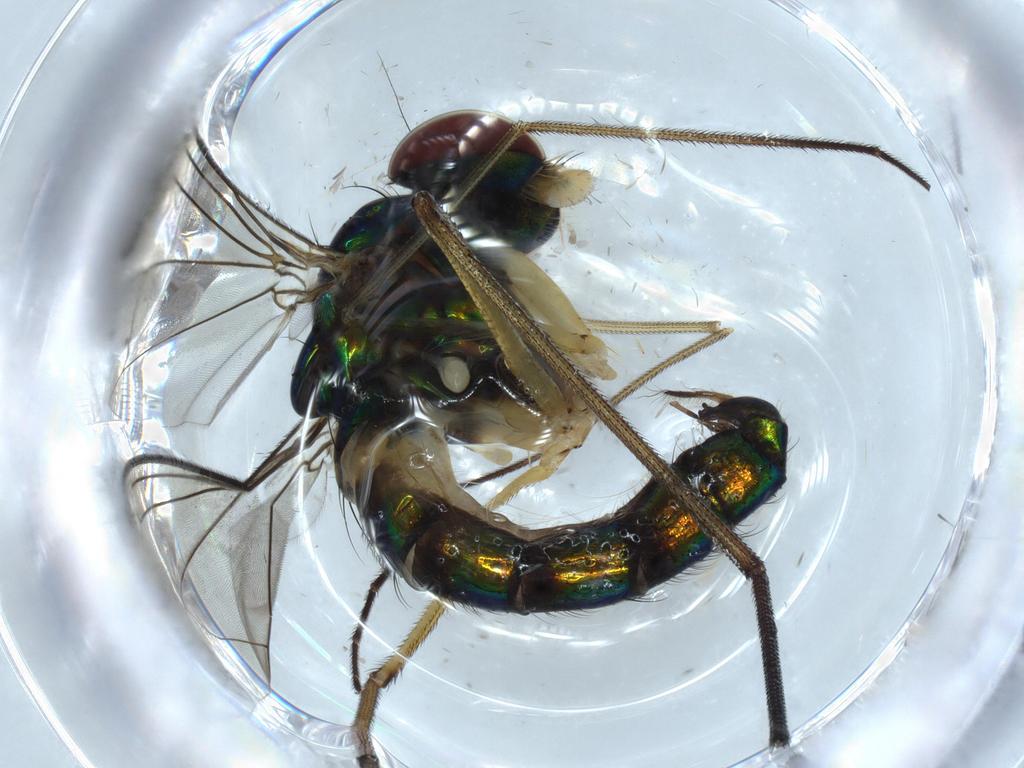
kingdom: Animalia
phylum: Arthropoda
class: Insecta
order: Diptera
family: Dolichopodidae
